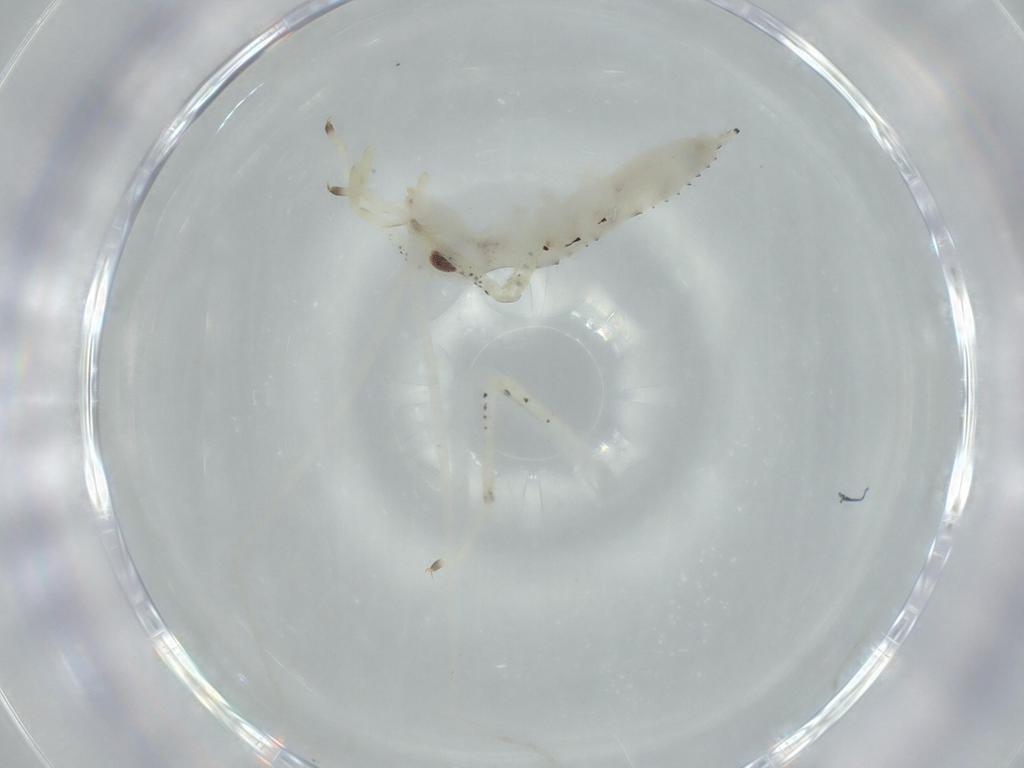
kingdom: Animalia
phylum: Arthropoda
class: Insecta
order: Orthoptera
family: Oecanthidae
